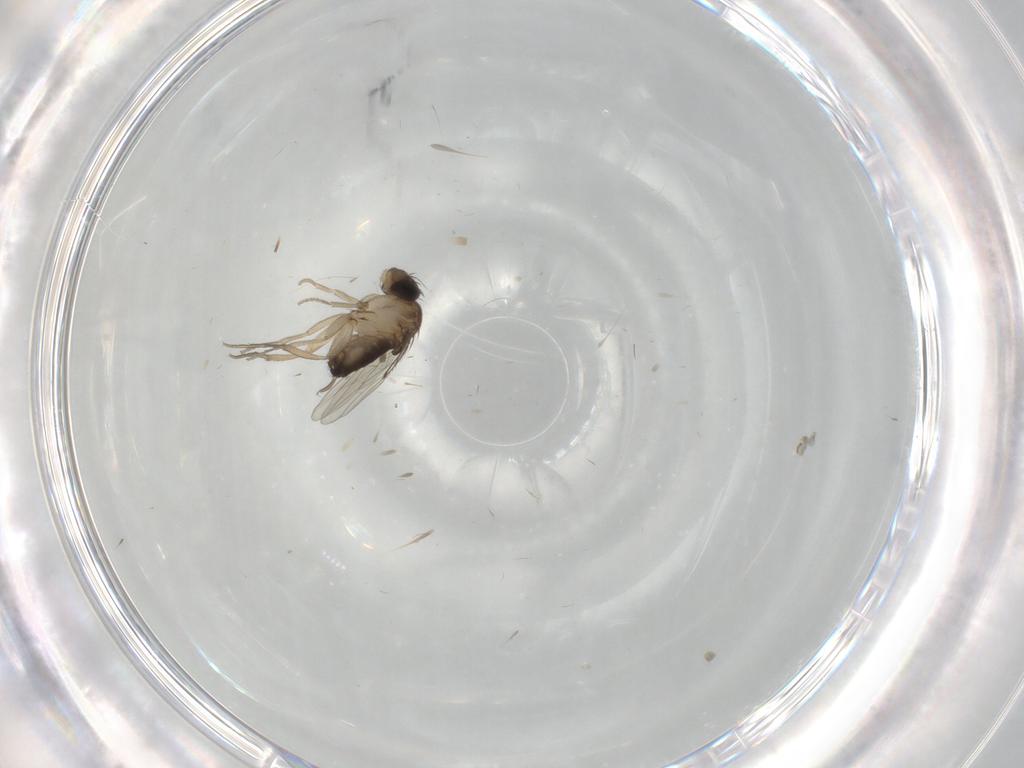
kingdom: Animalia
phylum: Arthropoda
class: Insecta
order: Diptera
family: Phoridae
